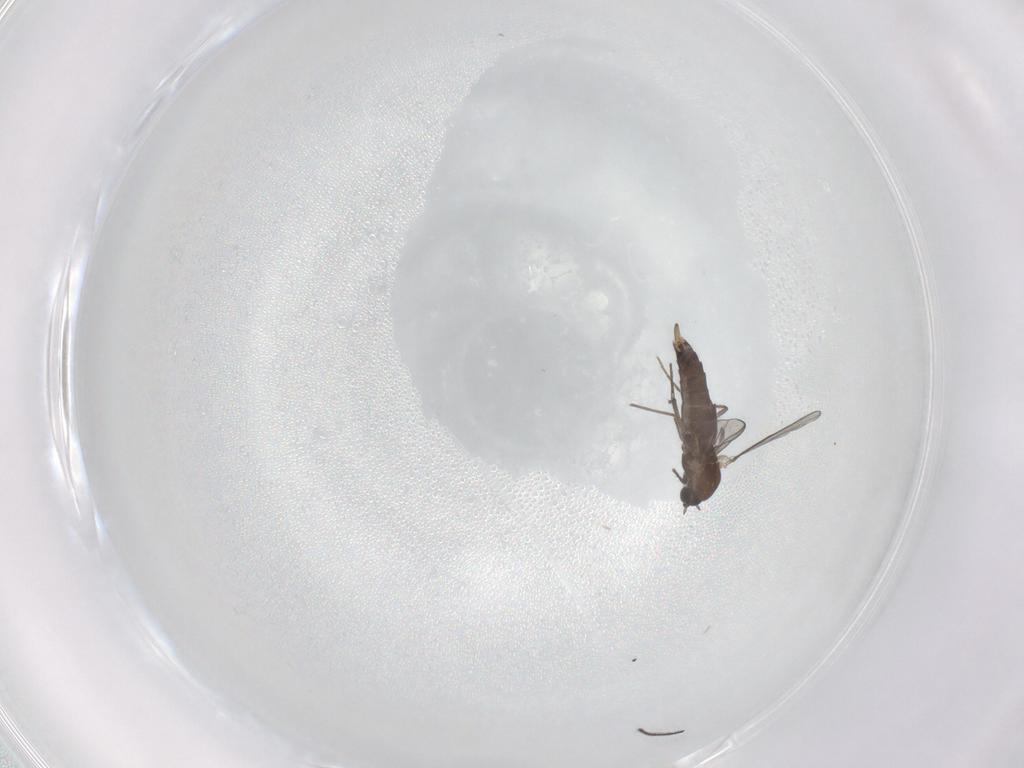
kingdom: Animalia
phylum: Arthropoda
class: Insecta
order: Diptera
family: Chironomidae
